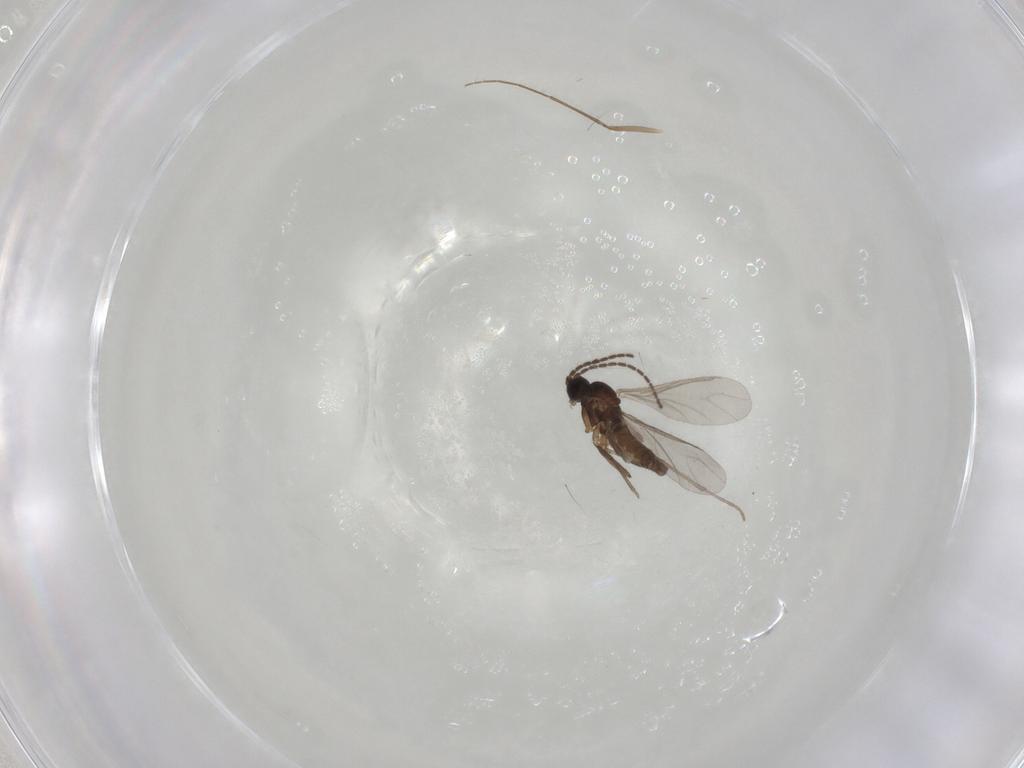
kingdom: Animalia
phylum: Arthropoda
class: Insecta
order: Diptera
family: Sciaridae
